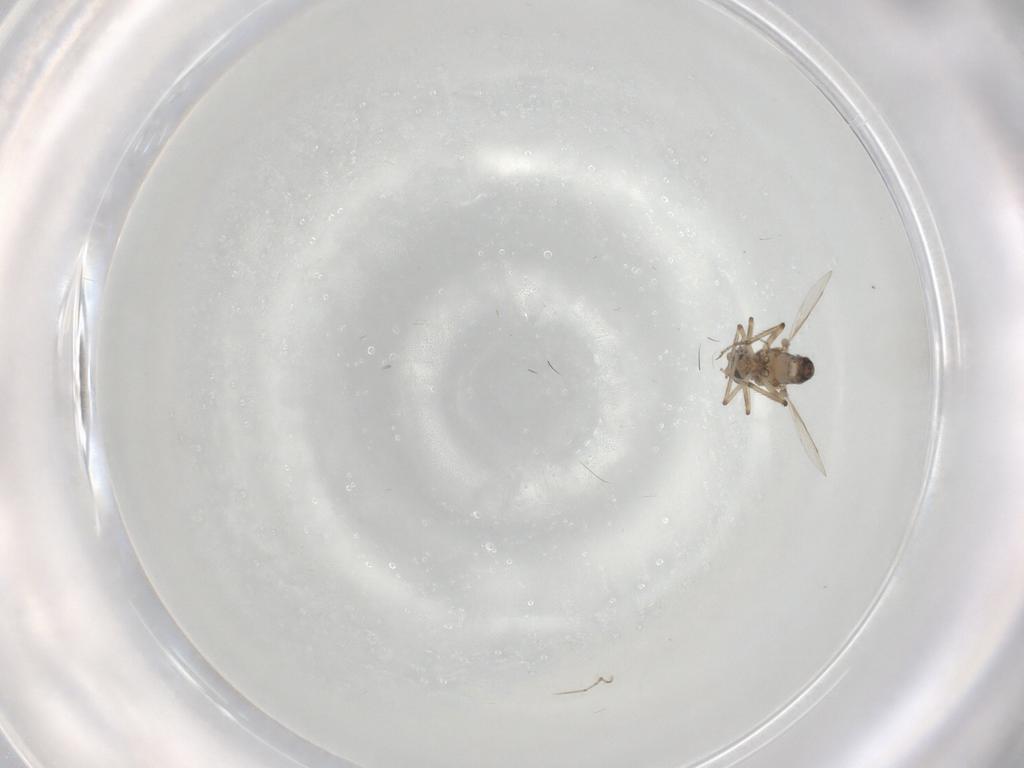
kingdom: Animalia
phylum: Arthropoda
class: Insecta
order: Diptera
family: Ceratopogonidae
